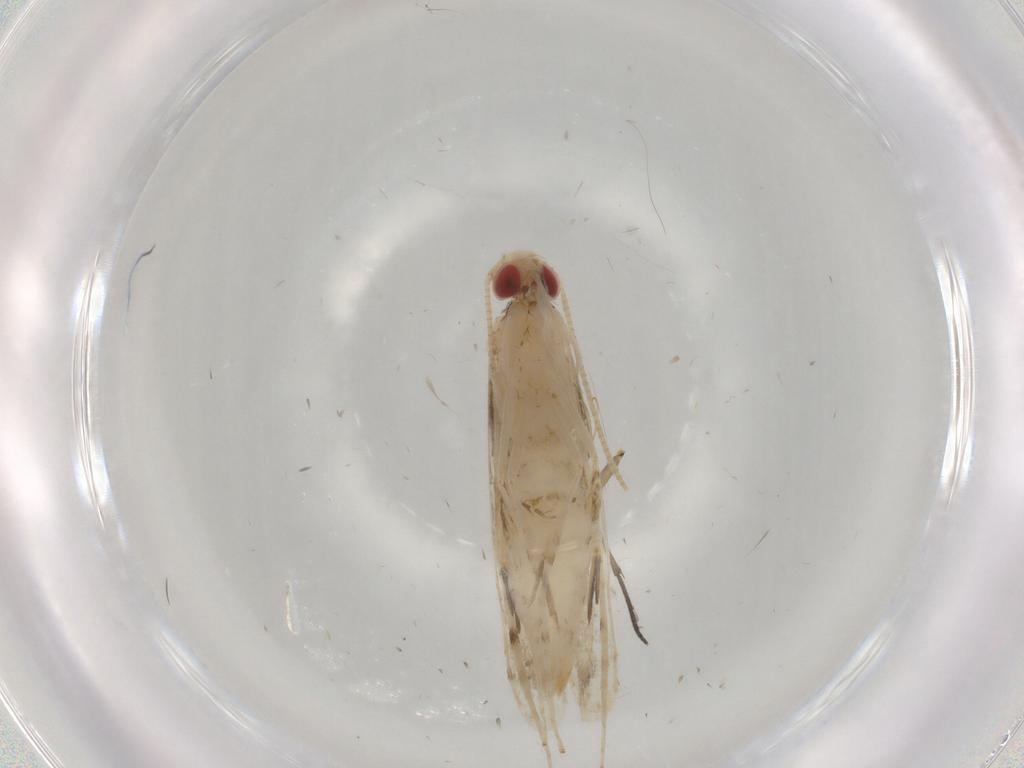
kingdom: Animalia
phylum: Arthropoda
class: Insecta
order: Lepidoptera
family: Gracillariidae
